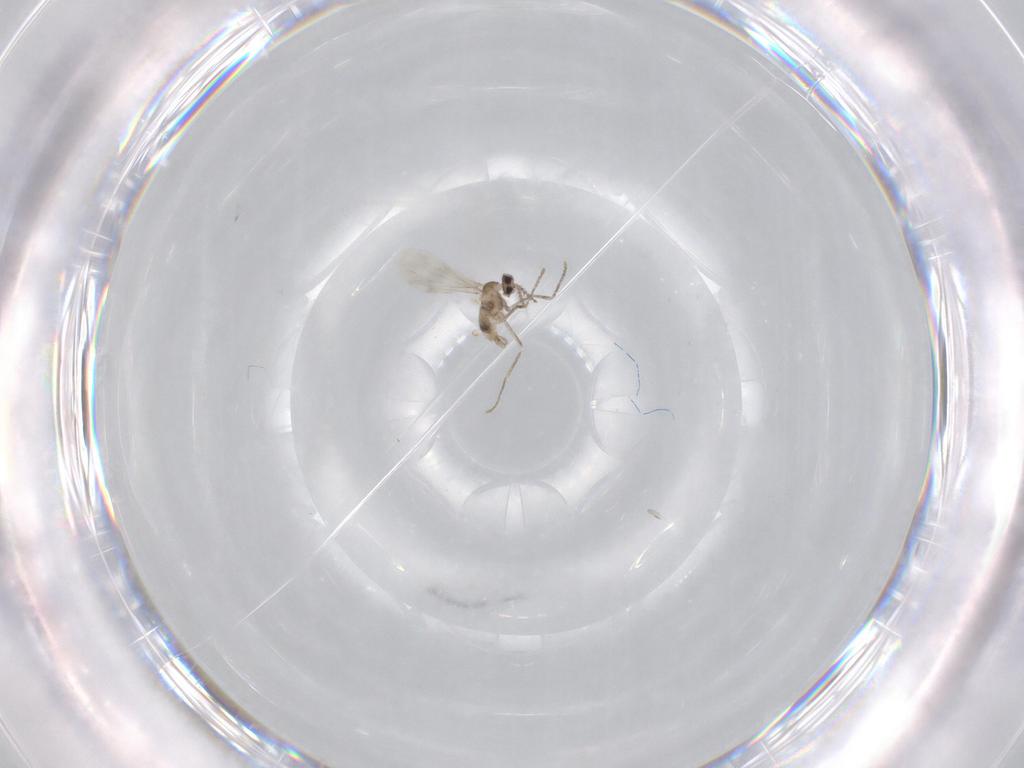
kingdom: Animalia
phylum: Arthropoda
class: Insecta
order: Diptera
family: Cecidomyiidae
